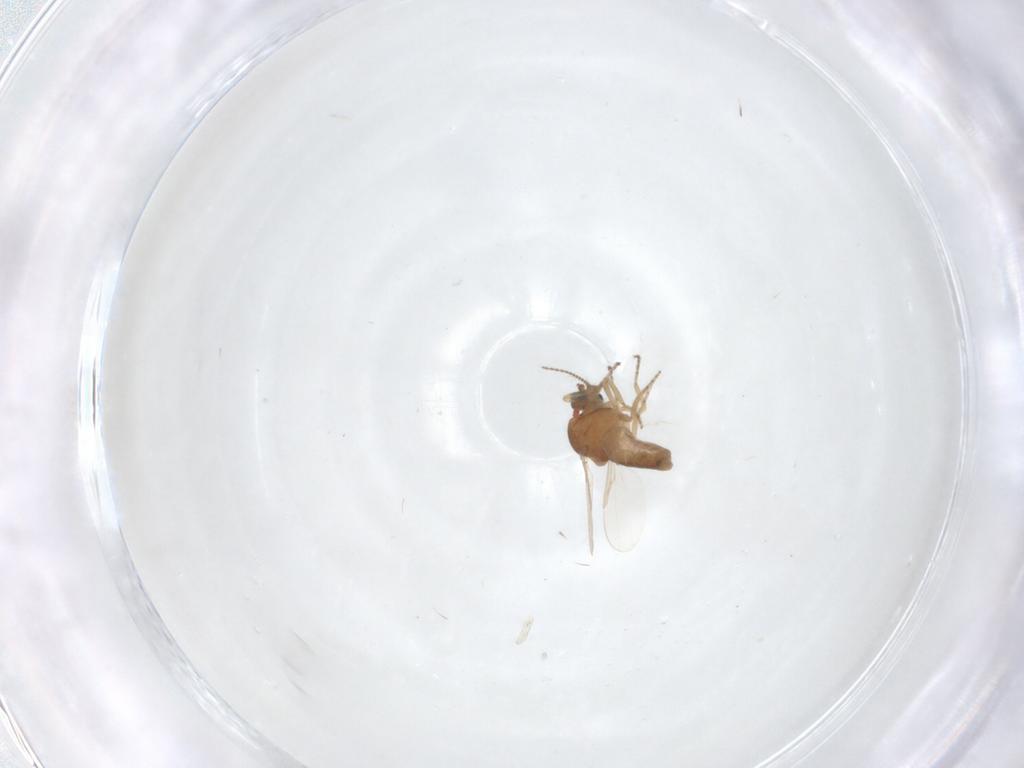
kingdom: Animalia
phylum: Arthropoda
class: Insecta
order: Diptera
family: Ceratopogonidae
